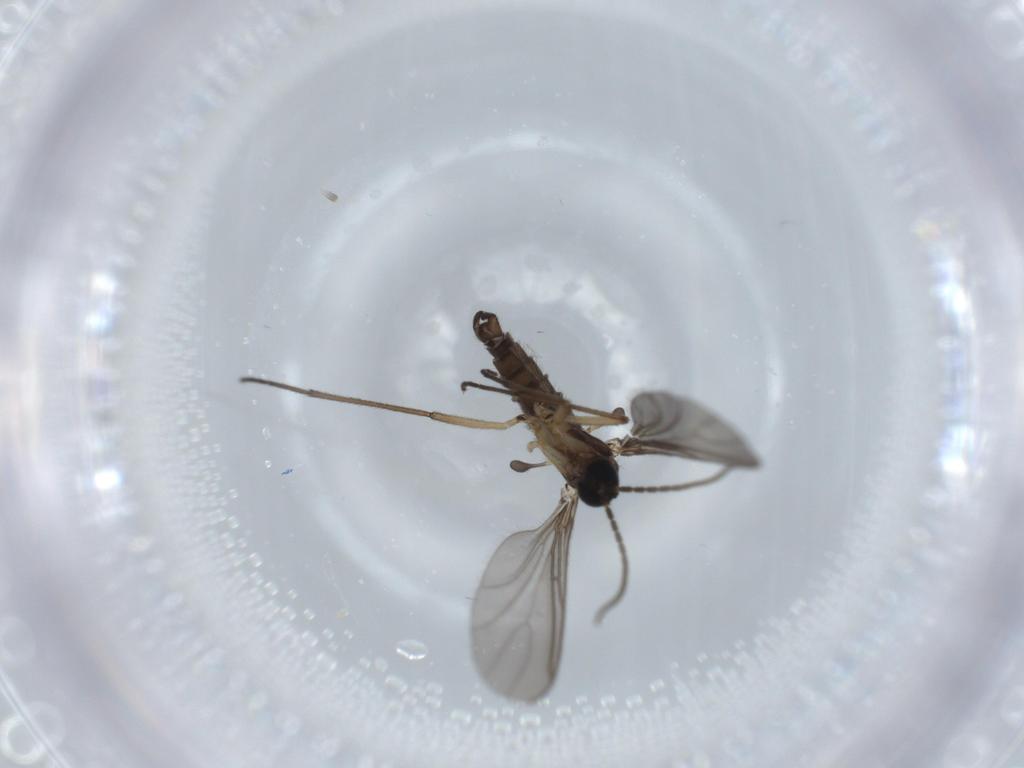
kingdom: Animalia
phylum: Arthropoda
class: Insecta
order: Diptera
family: Sciaridae
